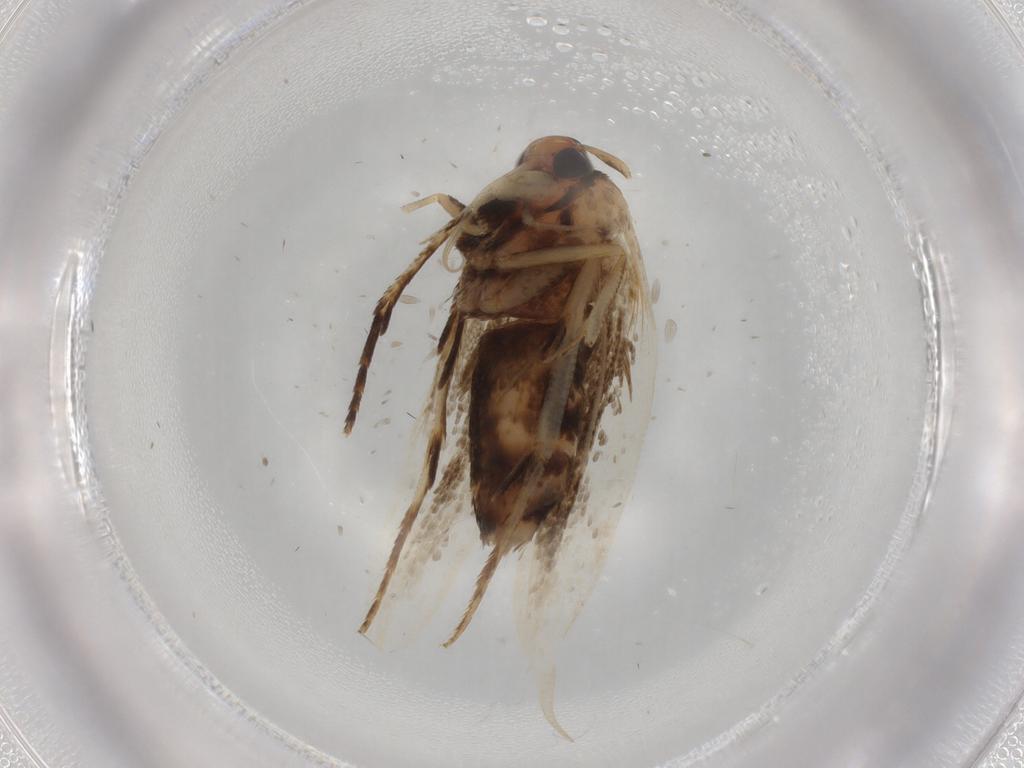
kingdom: Animalia
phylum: Arthropoda
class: Insecta
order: Lepidoptera
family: Cosmopterigidae
